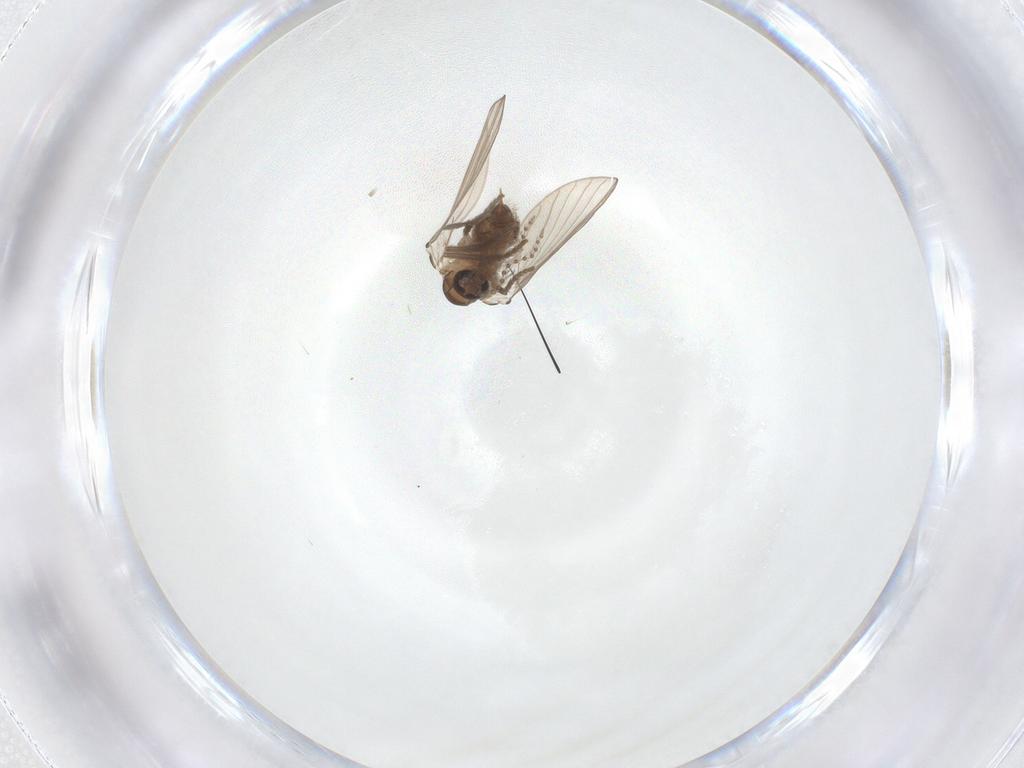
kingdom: Animalia
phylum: Arthropoda
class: Insecta
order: Diptera
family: Psychodidae
